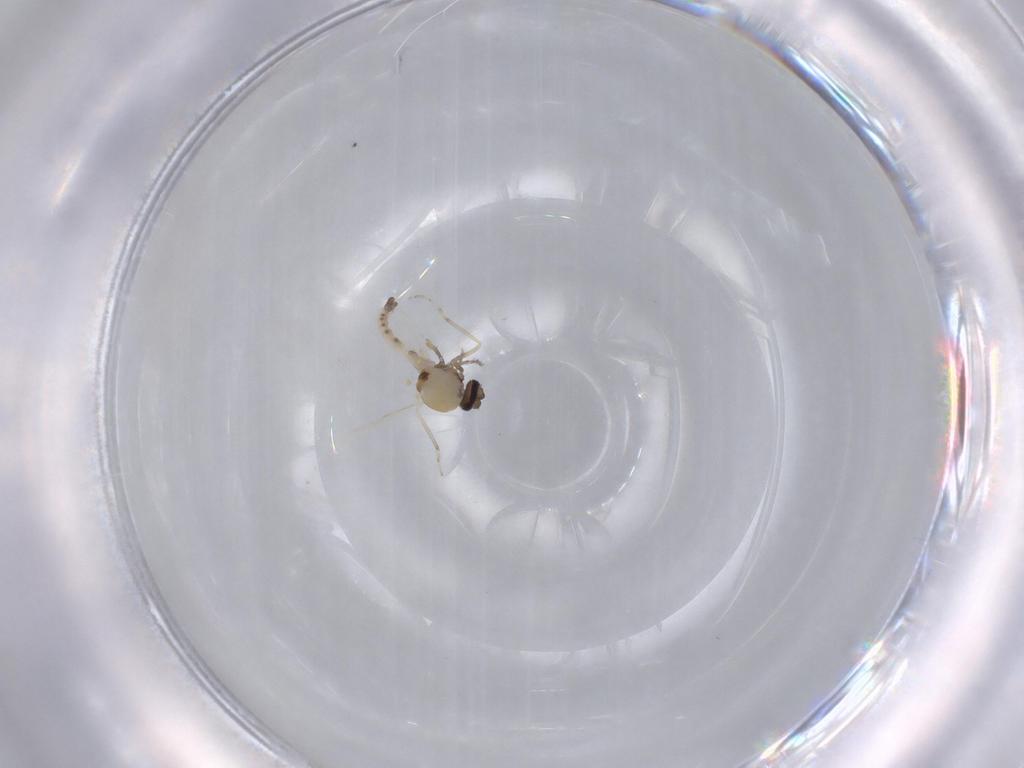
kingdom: Animalia
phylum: Arthropoda
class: Insecta
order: Diptera
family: Ceratopogonidae
